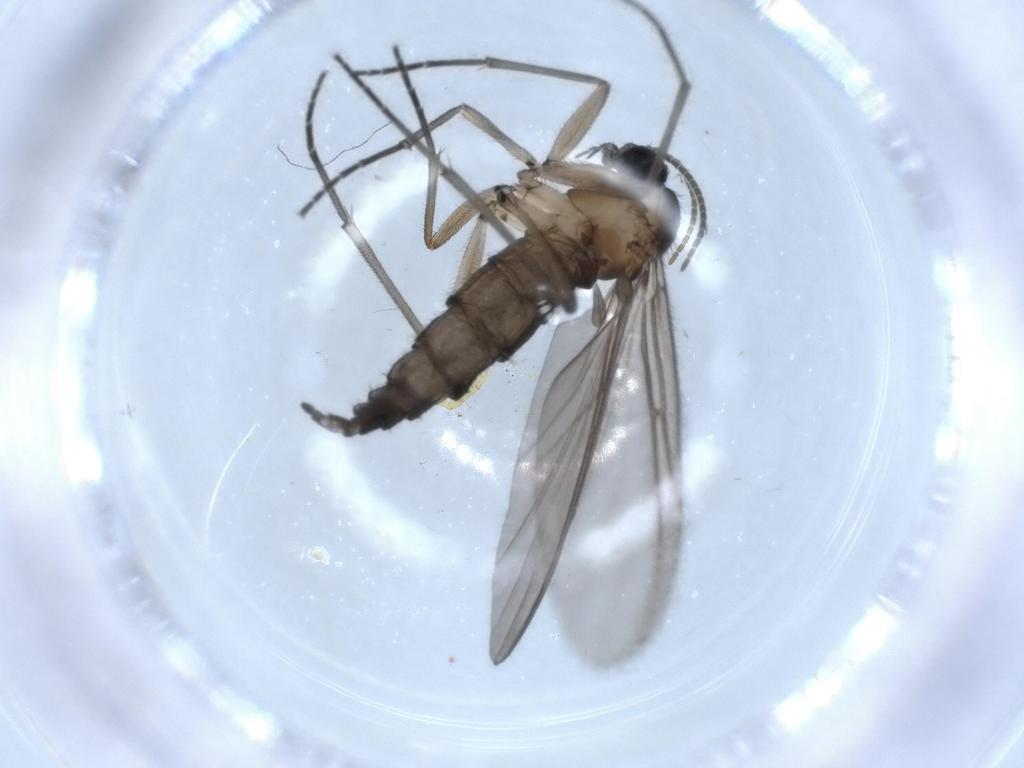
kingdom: Animalia
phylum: Arthropoda
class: Insecta
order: Diptera
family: Sciaridae
